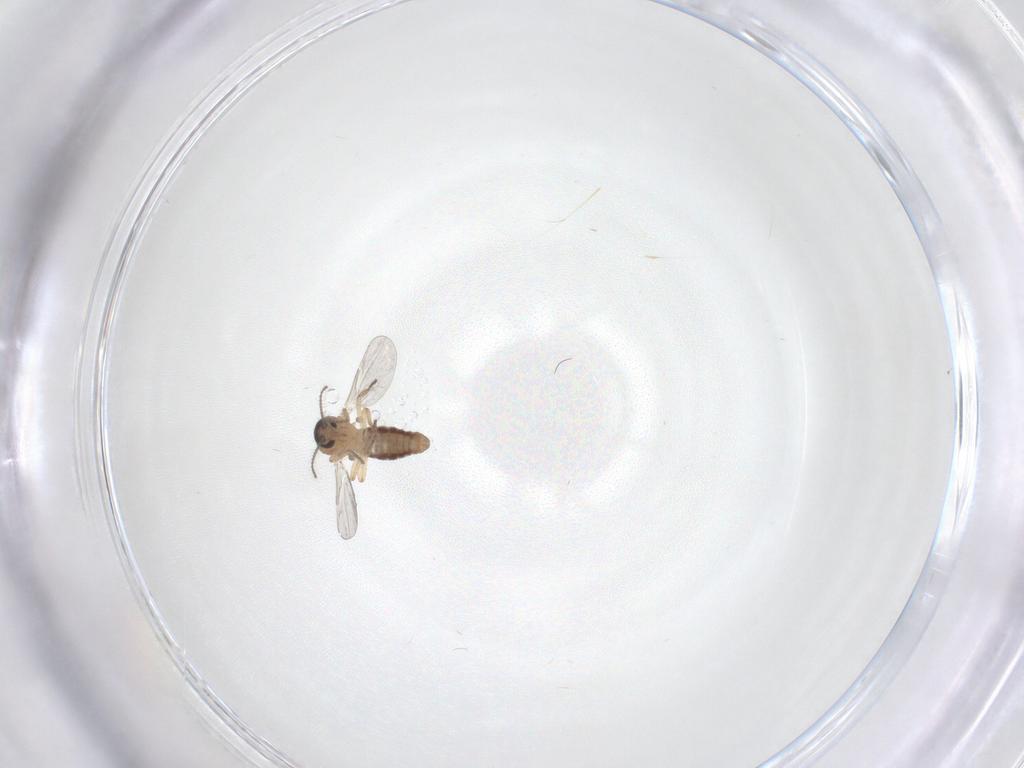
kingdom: Animalia
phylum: Arthropoda
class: Insecta
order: Diptera
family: Ceratopogonidae
